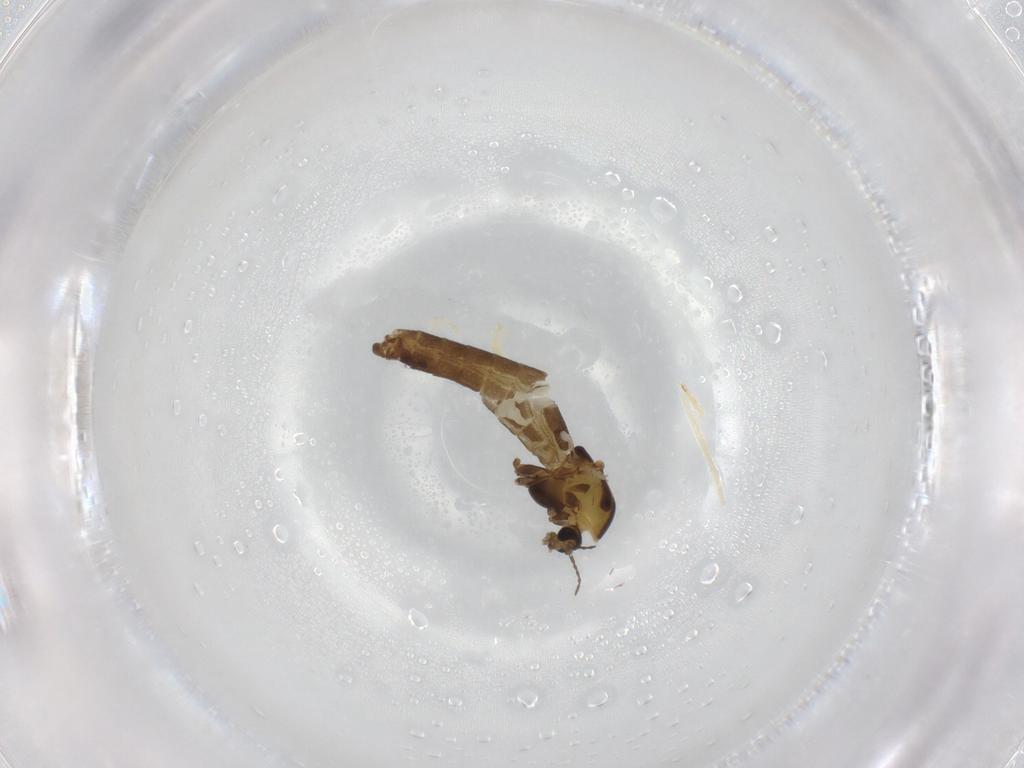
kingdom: Animalia
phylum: Arthropoda
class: Insecta
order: Diptera
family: Chironomidae
